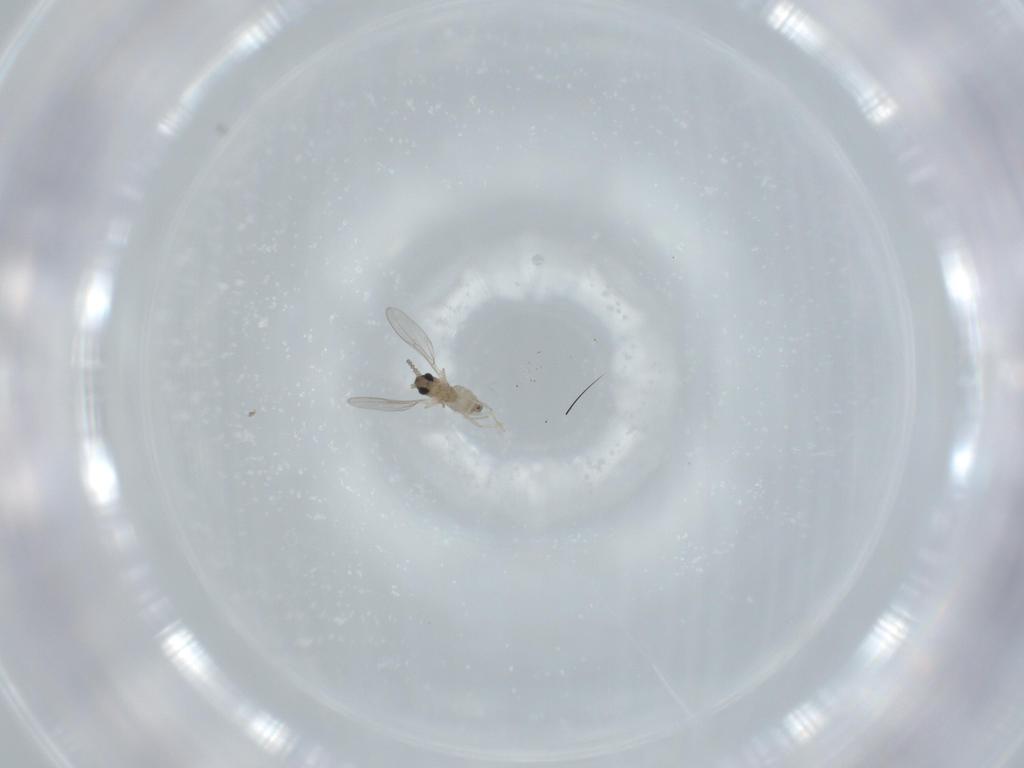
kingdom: Animalia
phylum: Arthropoda
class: Insecta
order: Diptera
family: Cecidomyiidae
